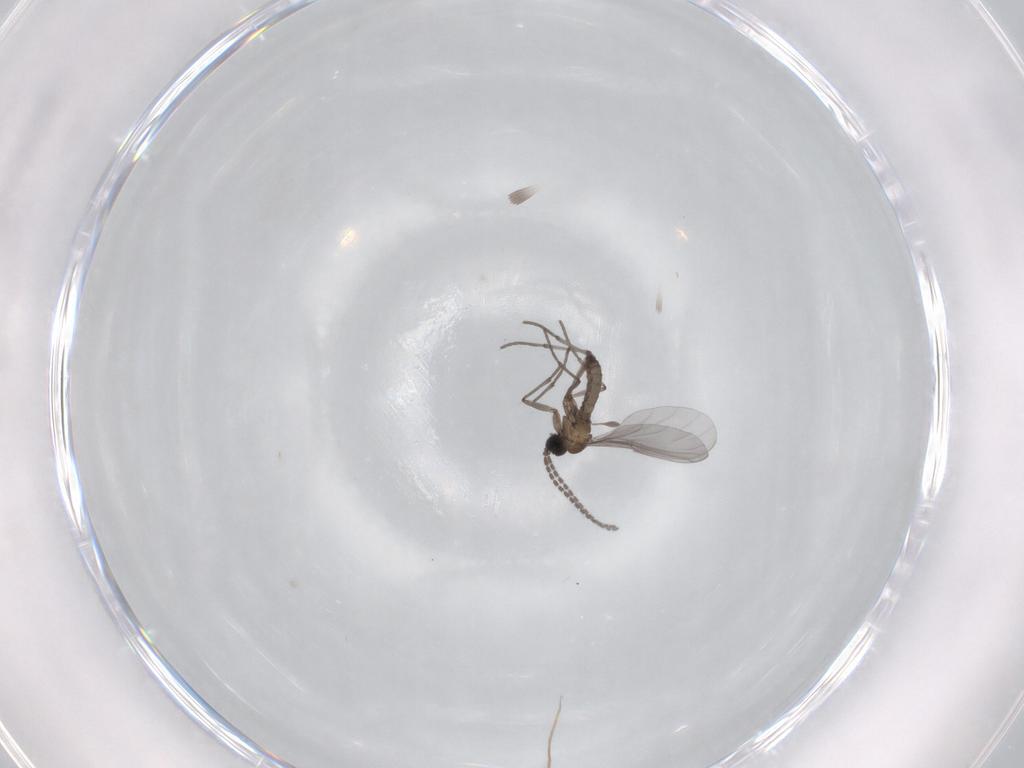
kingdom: Animalia
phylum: Arthropoda
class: Insecta
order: Diptera
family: Sciaridae
